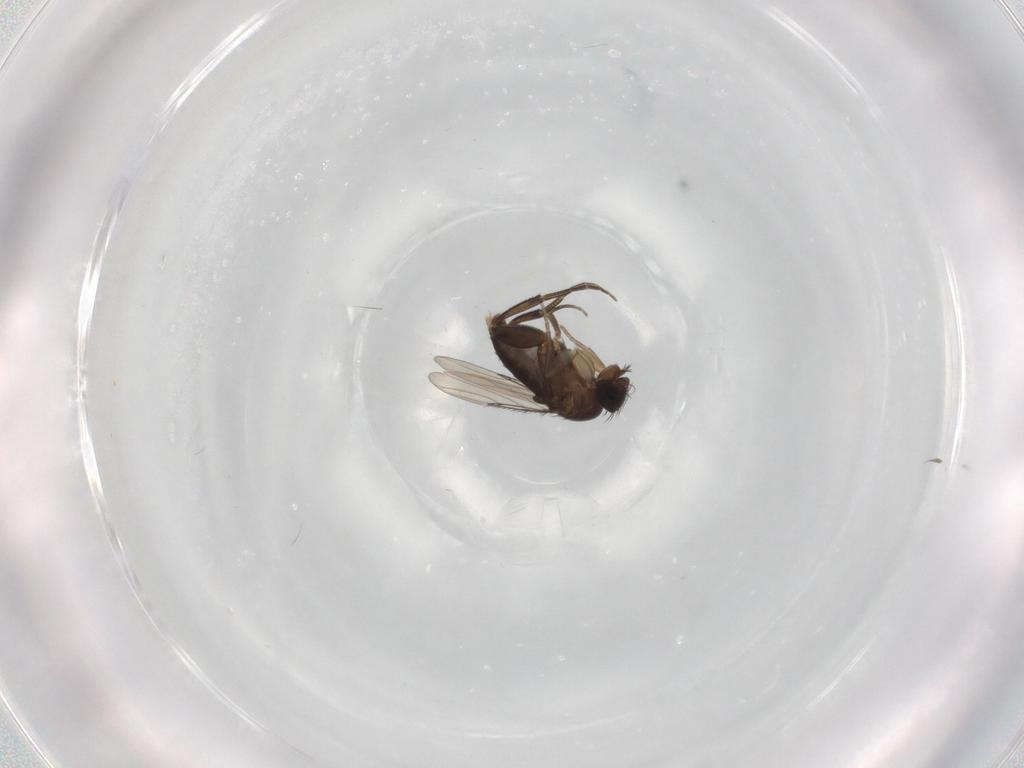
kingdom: Animalia
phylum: Arthropoda
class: Insecta
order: Diptera
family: Phoridae
